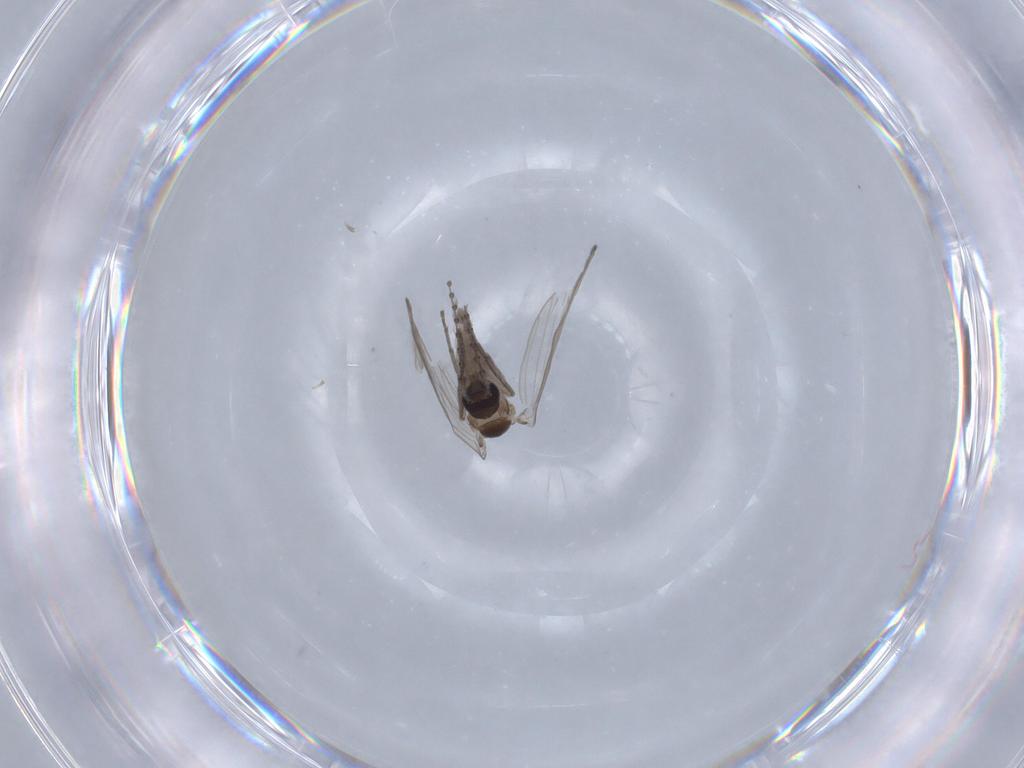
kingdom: Animalia
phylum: Arthropoda
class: Insecta
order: Diptera
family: Psychodidae
